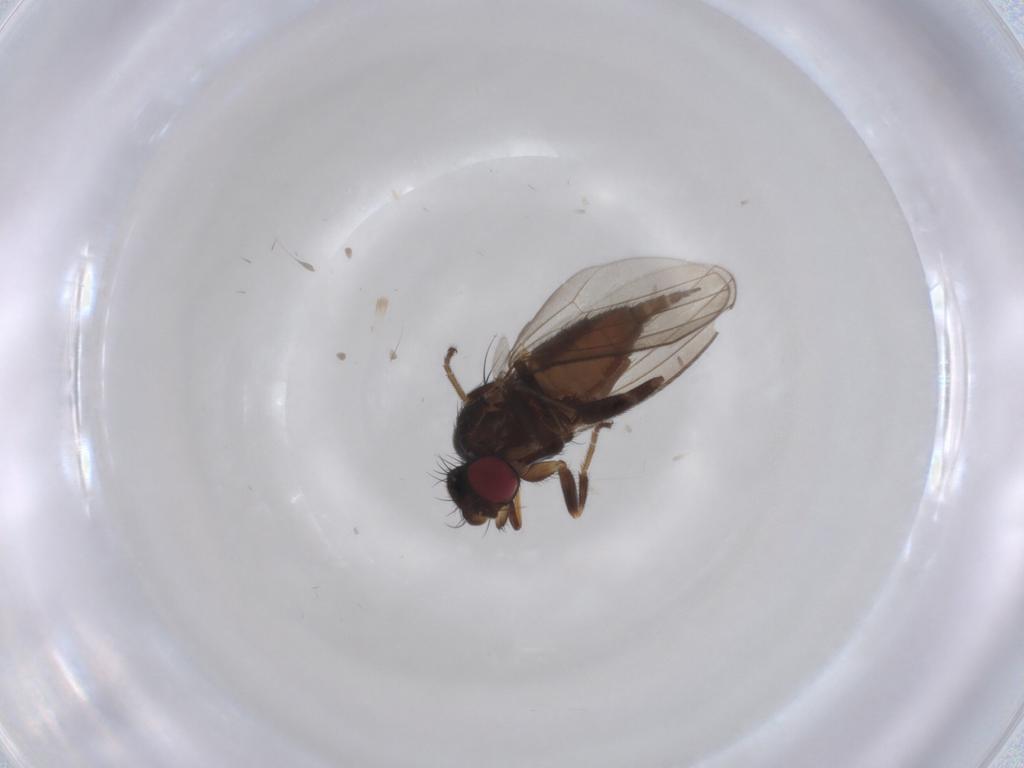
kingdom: Animalia
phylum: Arthropoda
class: Insecta
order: Diptera
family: Milichiidae
